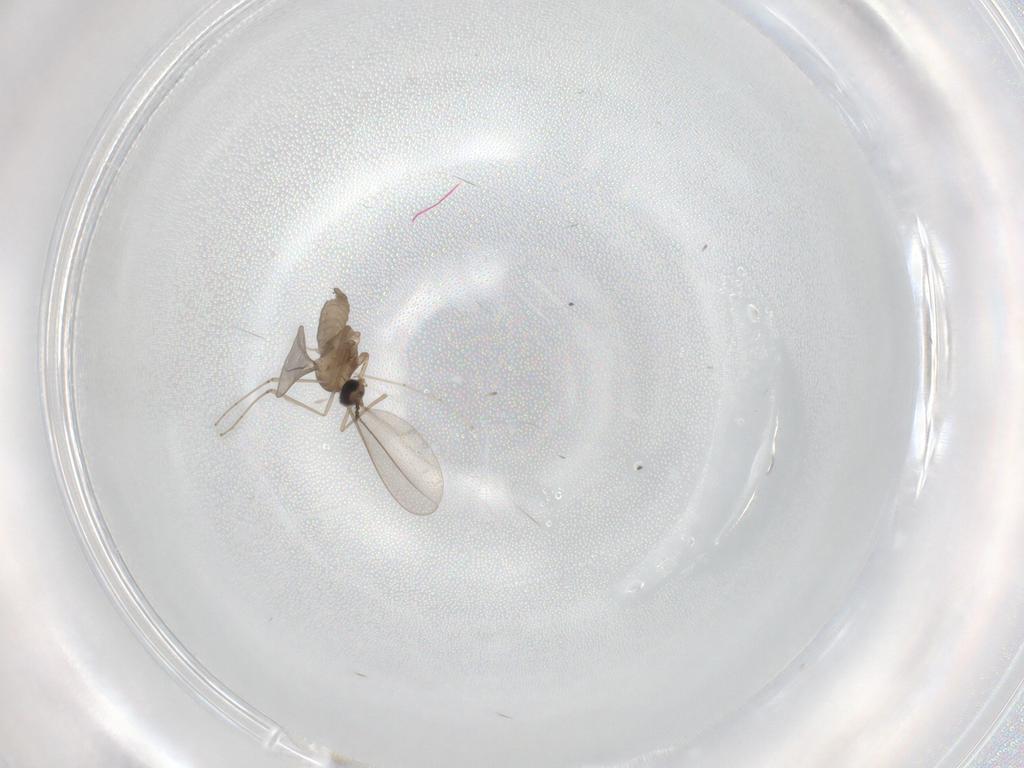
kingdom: Animalia
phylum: Arthropoda
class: Insecta
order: Diptera
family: Cecidomyiidae
